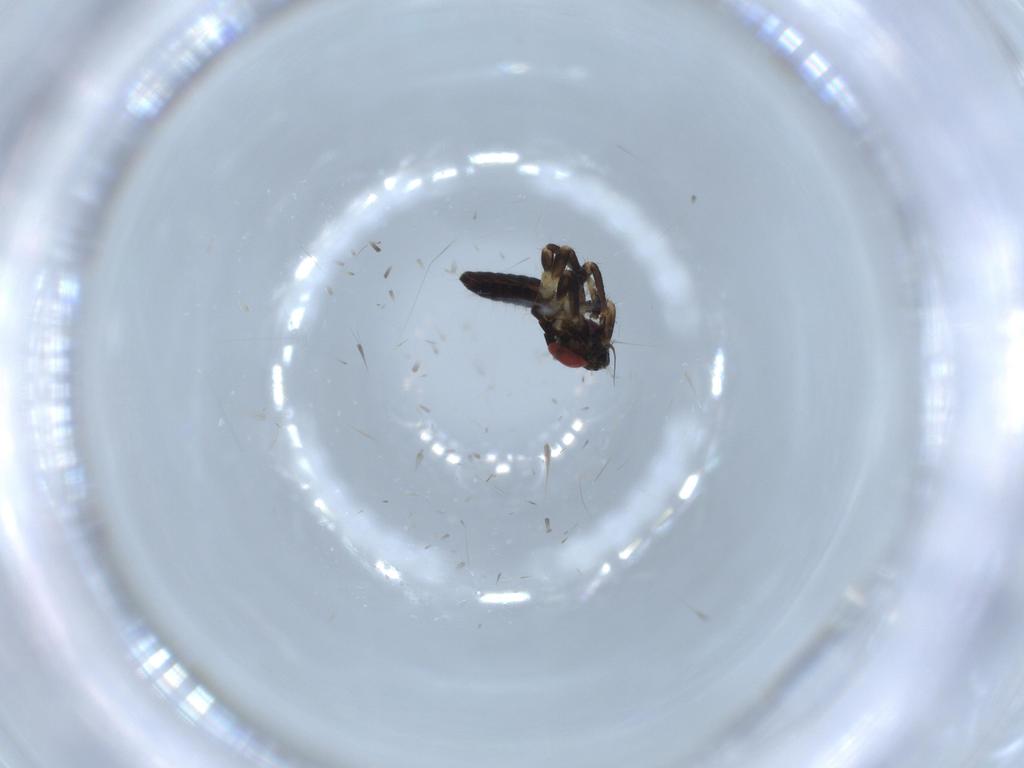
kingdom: Animalia
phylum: Arthropoda
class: Insecta
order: Hemiptera
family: Cicadellidae
